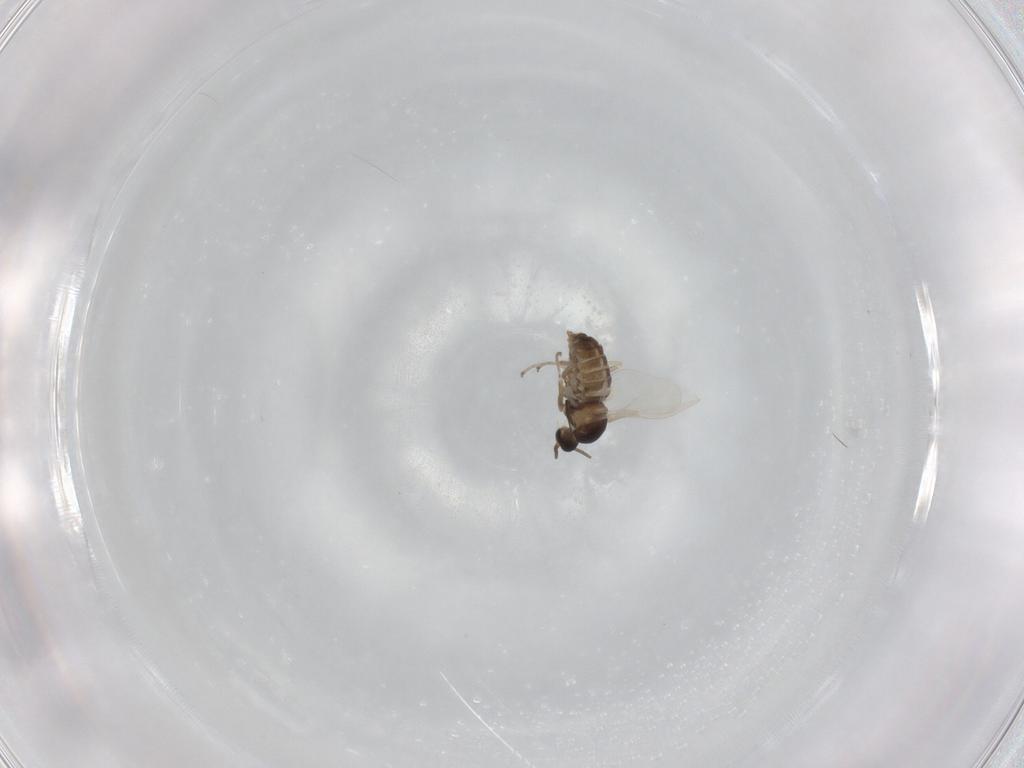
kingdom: Animalia
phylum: Arthropoda
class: Insecta
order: Diptera
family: Cecidomyiidae
